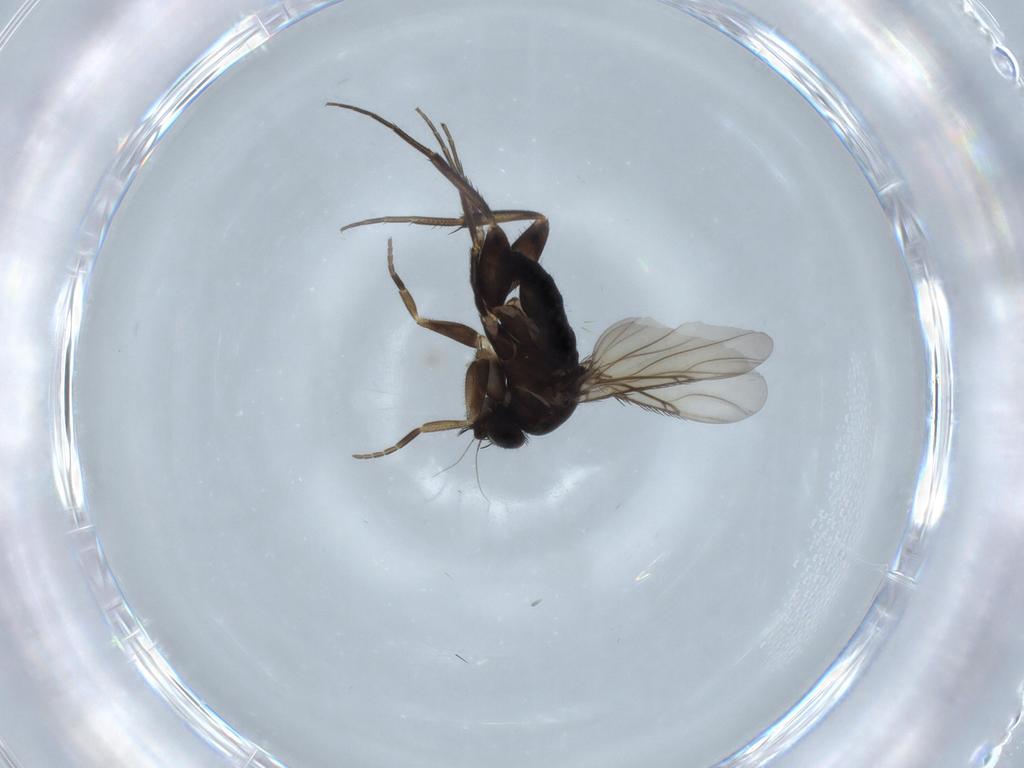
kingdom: Animalia
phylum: Arthropoda
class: Insecta
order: Diptera
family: Phoridae
